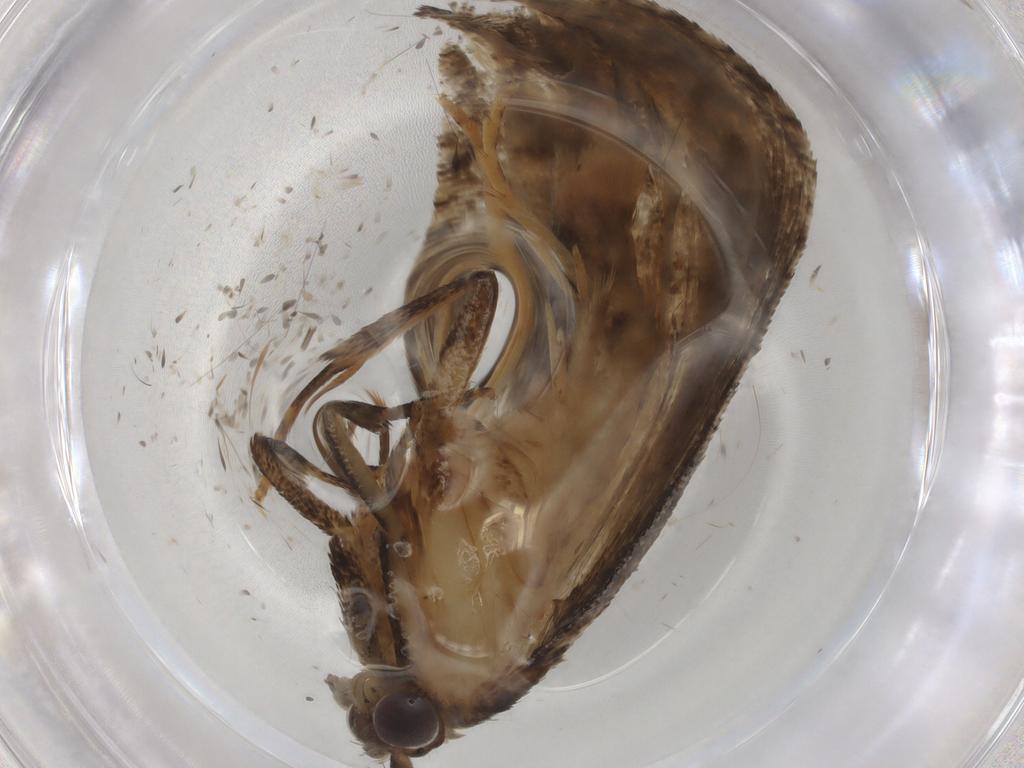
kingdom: Animalia
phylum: Arthropoda
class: Insecta
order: Lepidoptera
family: Tortricidae
